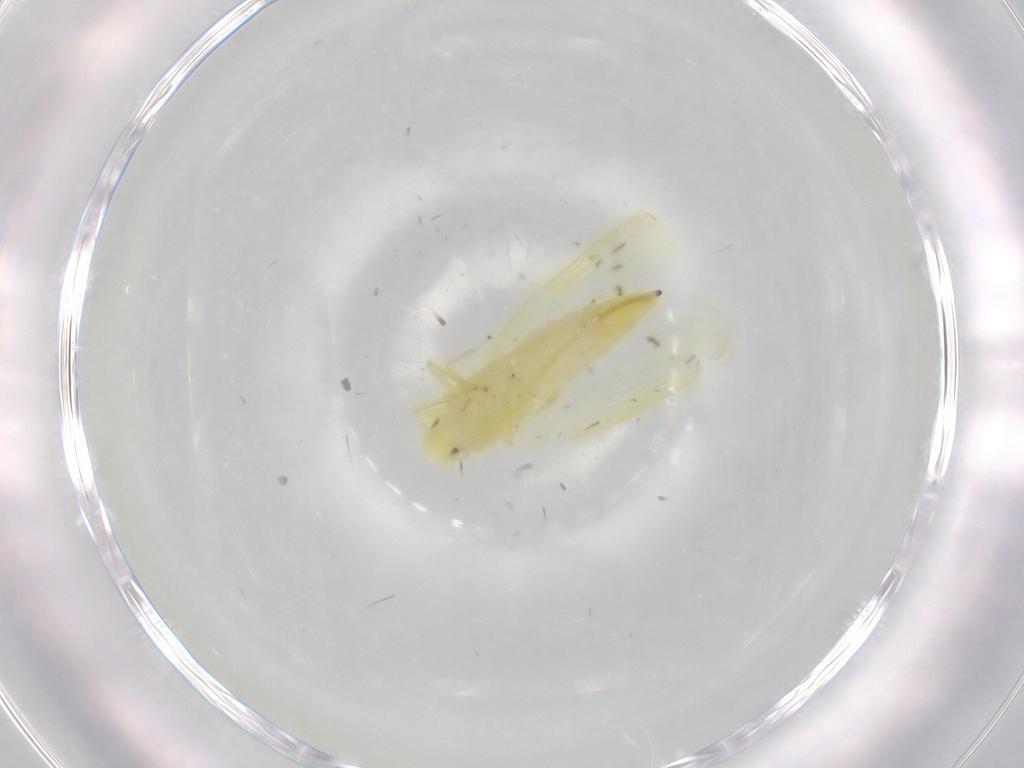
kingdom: Animalia
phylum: Arthropoda
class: Insecta
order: Hemiptera
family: Cicadellidae
